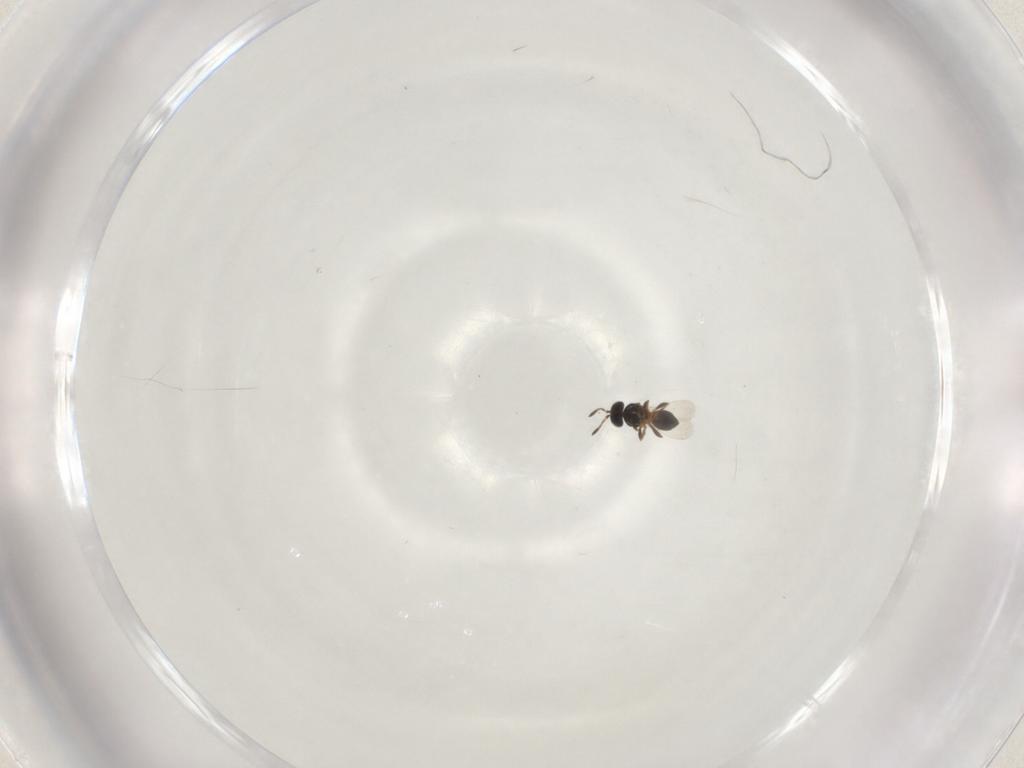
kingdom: Animalia
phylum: Arthropoda
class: Insecta
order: Hymenoptera
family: Platygastridae
